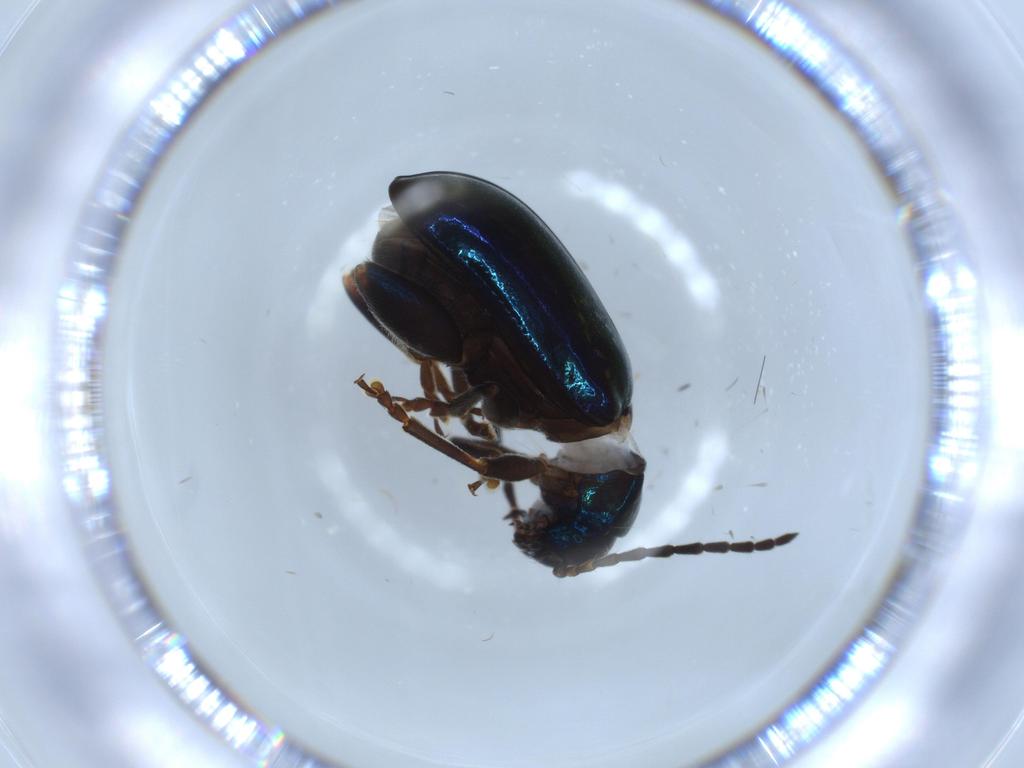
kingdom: Animalia
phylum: Arthropoda
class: Insecta
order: Coleoptera
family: Chrysomelidae
